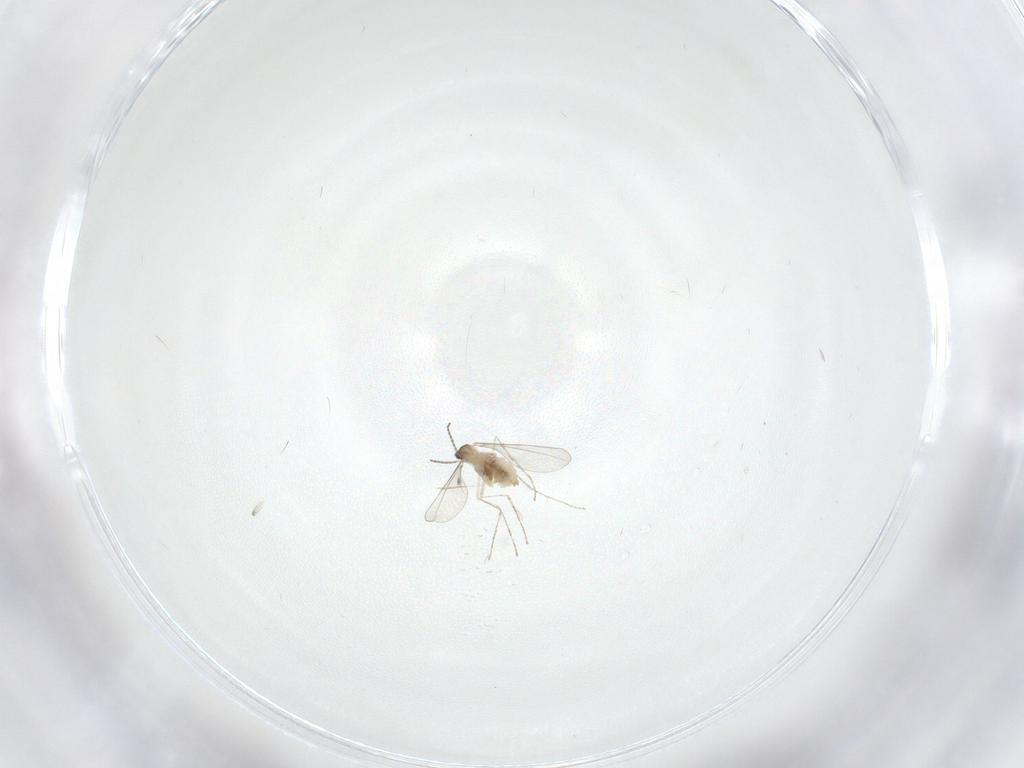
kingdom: Animalia
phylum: Arthropoda
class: Insecta
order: Diptera
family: Cecidomyiidae
